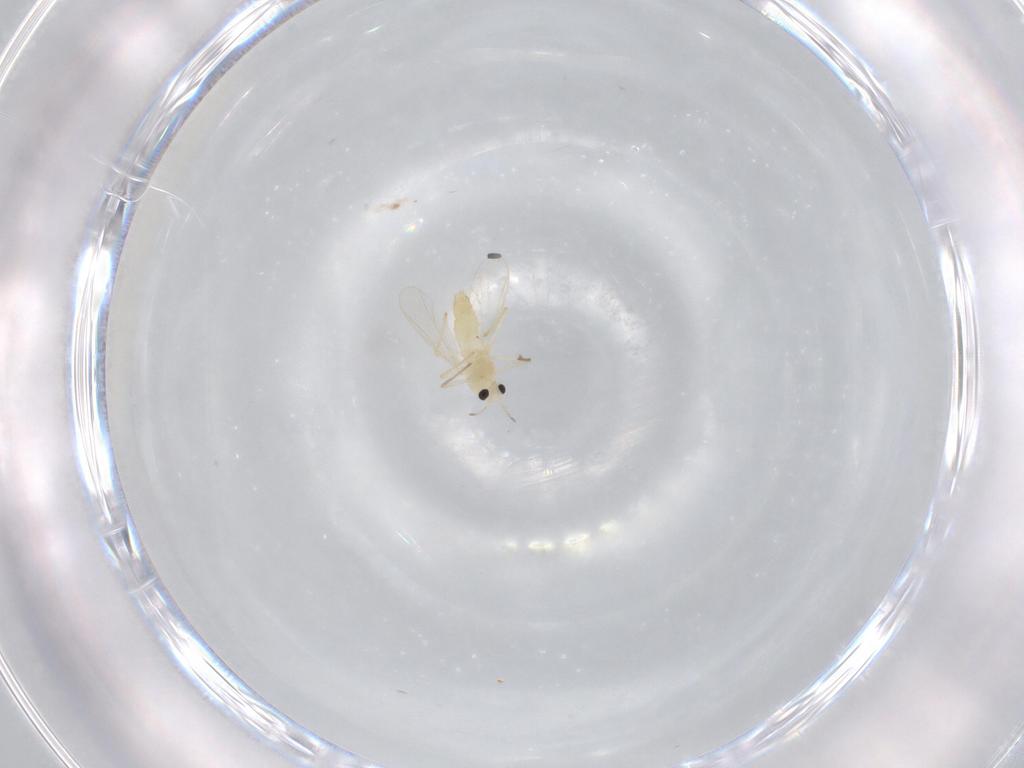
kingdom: Animalia
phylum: Arthropoda
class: Insecta
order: Diptera
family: Chironomidae
